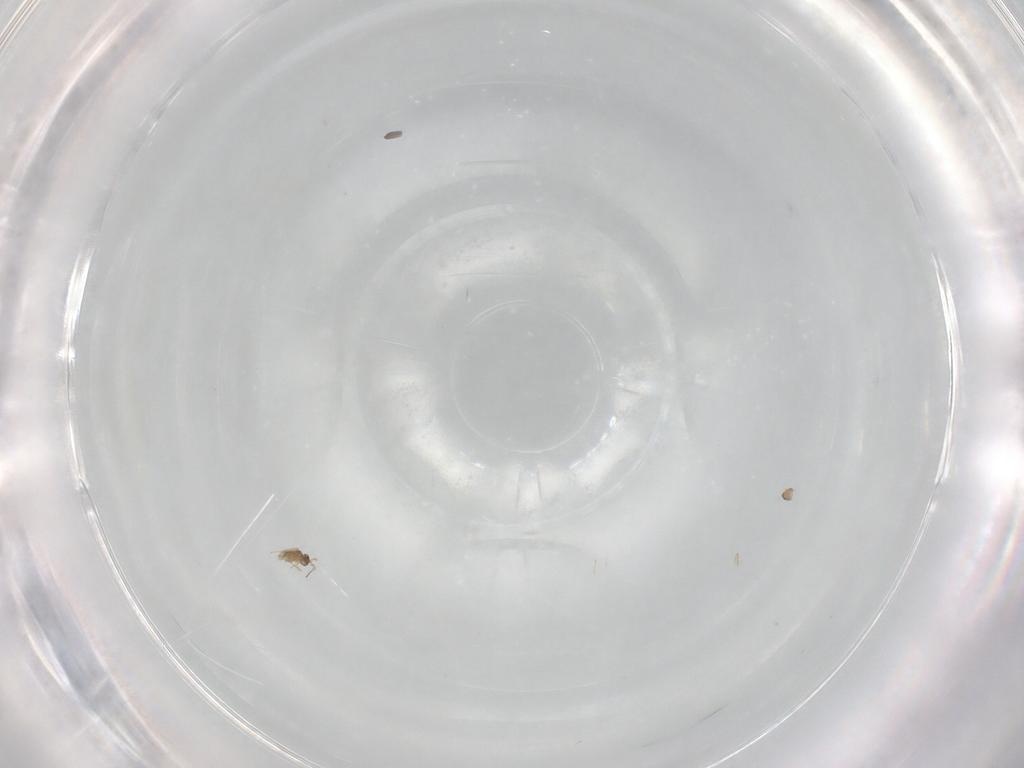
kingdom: Animalia
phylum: Arthropoda
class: Insecta
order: Hymenoptera
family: Mymaridae
